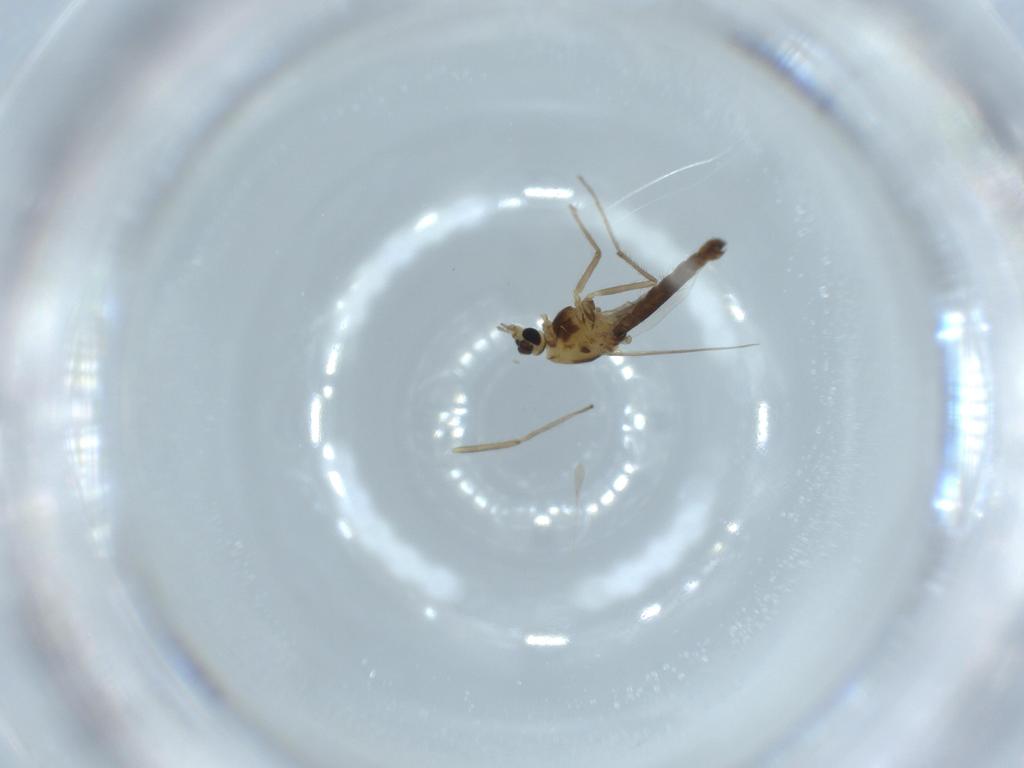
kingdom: Animalia
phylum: Arthropoda
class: Insecta
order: Diptera
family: Chironomidae
